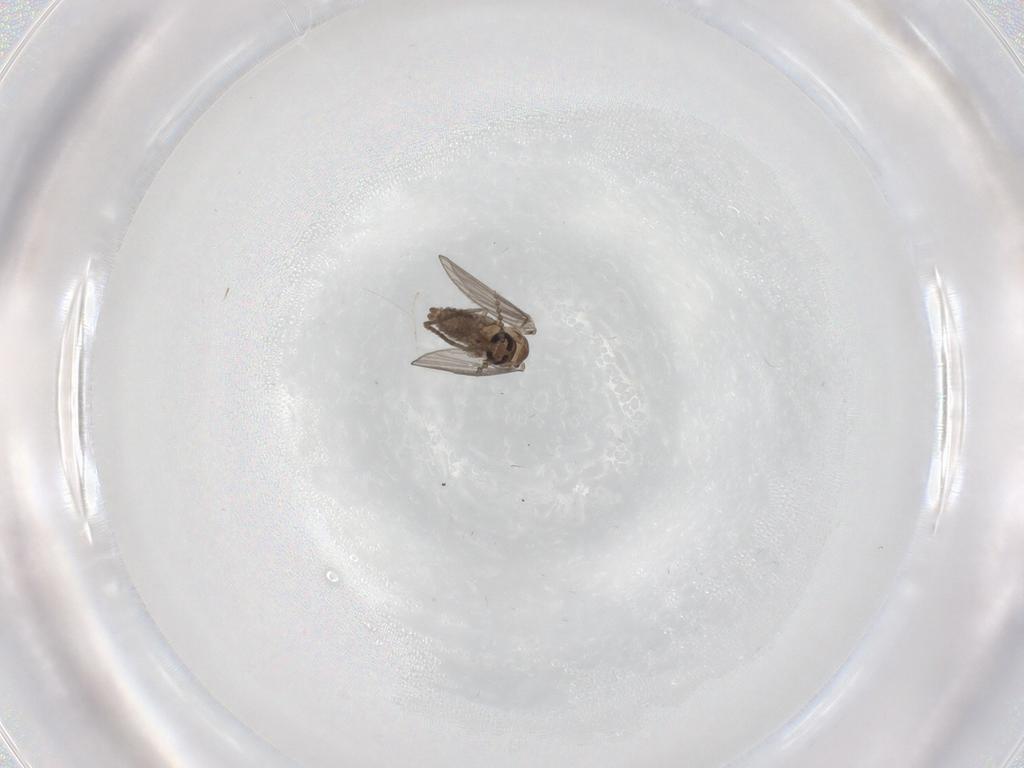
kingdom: Animalia
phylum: Arthropoda
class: Insecta
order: Diptera
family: Psychodidae
